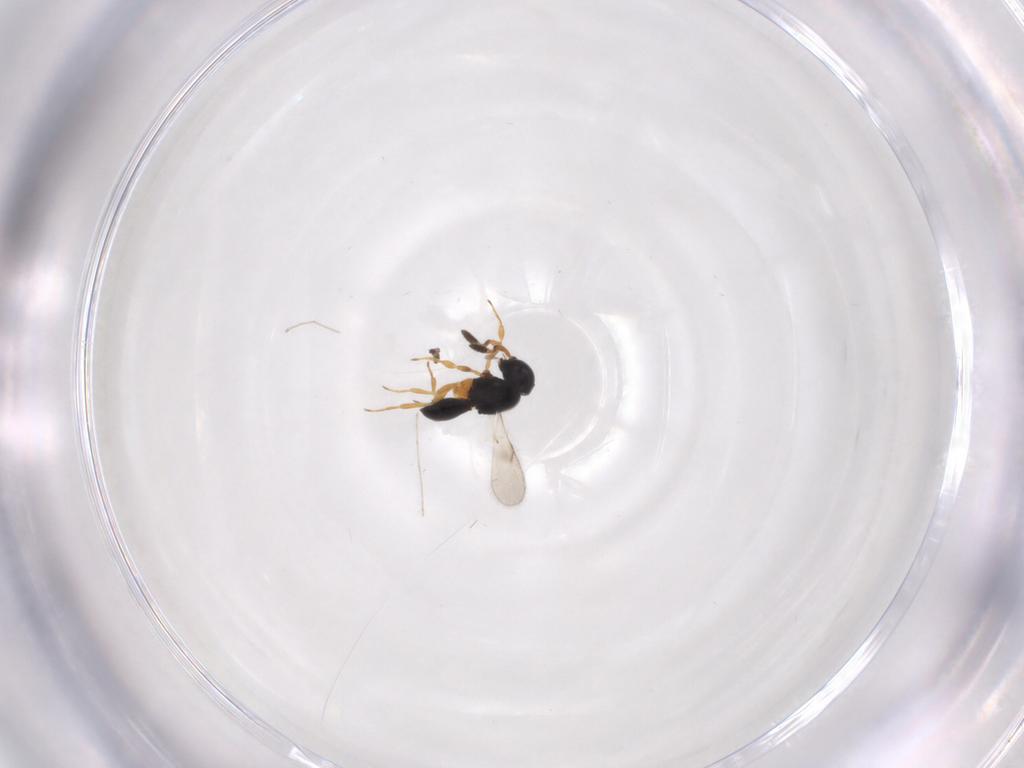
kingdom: Animalia
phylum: Arthropoda
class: Insecta
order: Hymenoptera
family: Scelionidae
